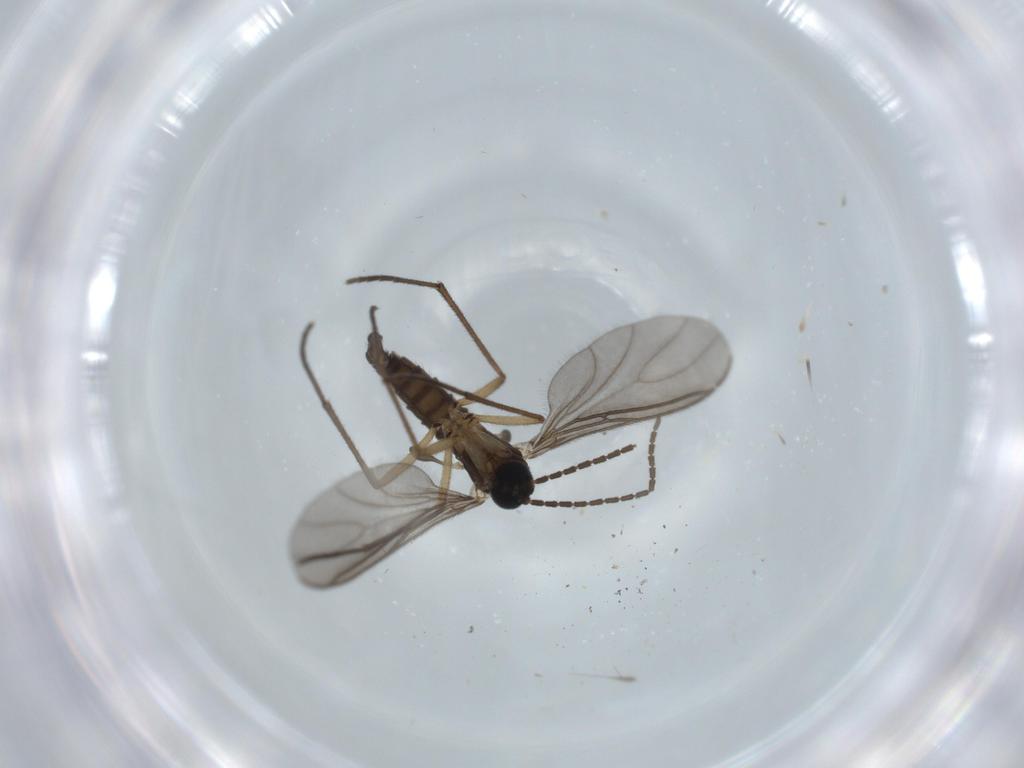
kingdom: Animalia
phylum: Arthropoda
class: Insecta
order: Diptera
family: Sciaridae
